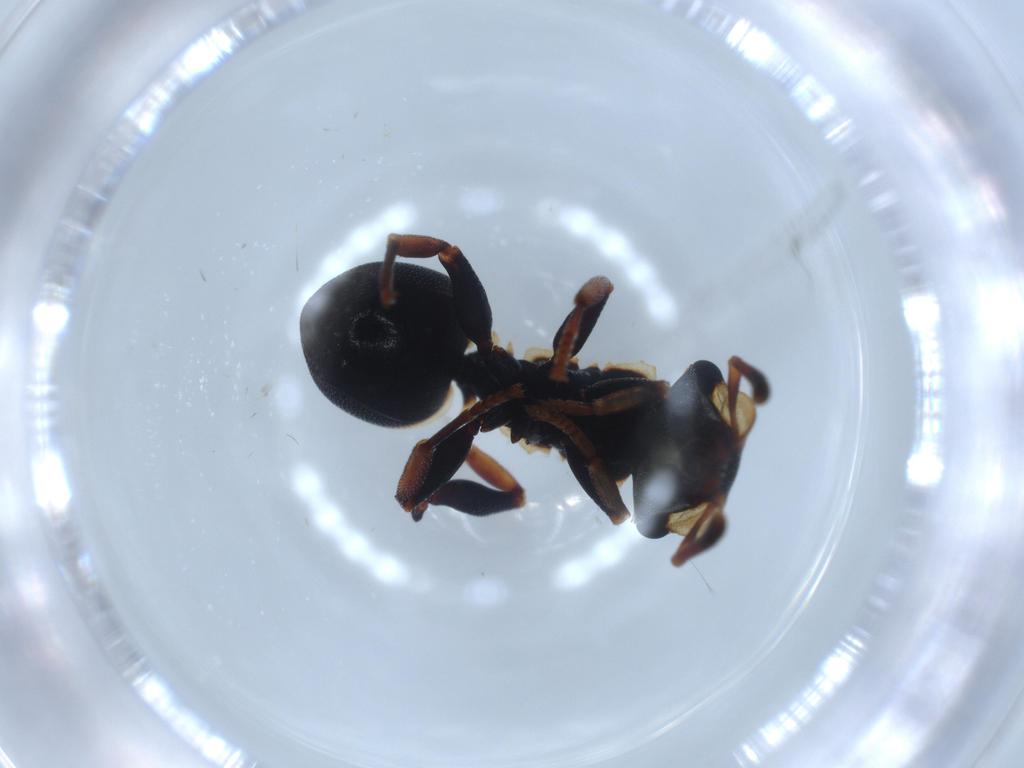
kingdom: Animalia
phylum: Arthropoda
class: Insecta
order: Hymenoptera
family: Formicidae
